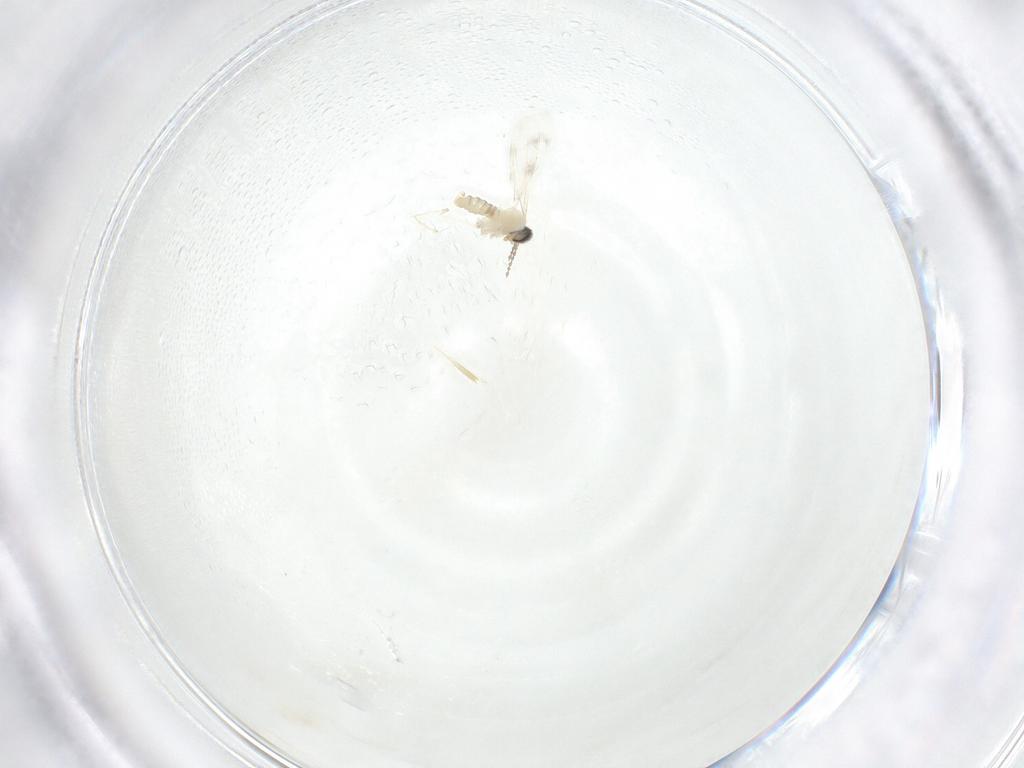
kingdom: Animalia
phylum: Arthropoda
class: Insecta
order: Diptera
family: Cecidomyiidae
